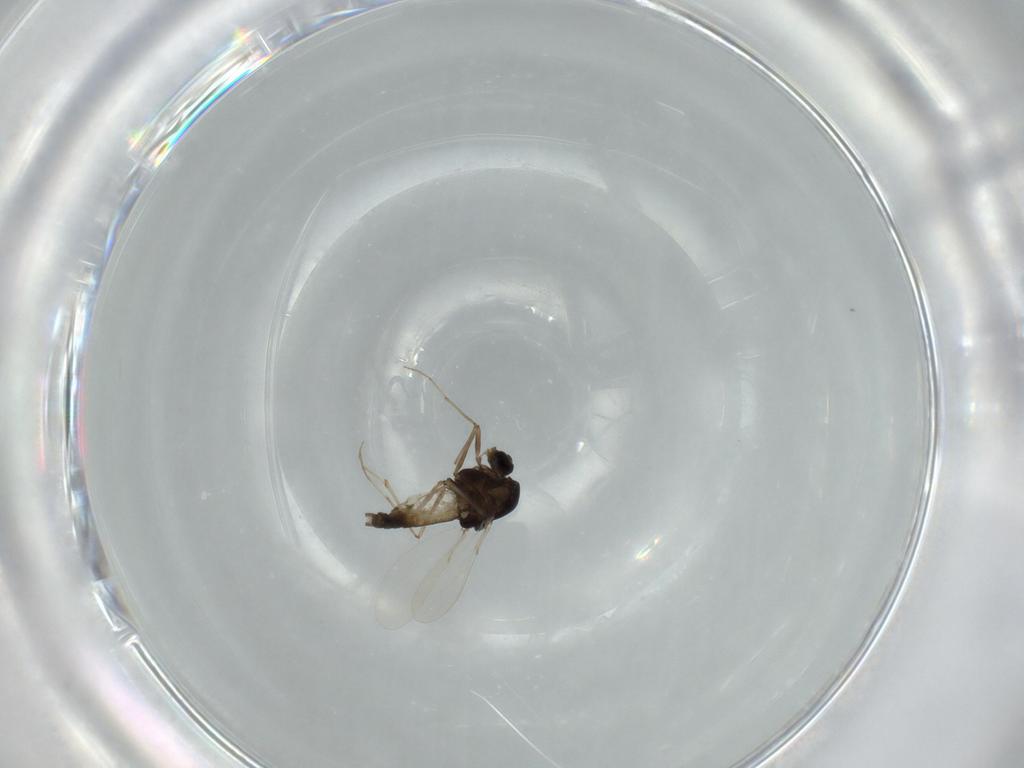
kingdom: Animalia
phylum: Arthropoda
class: Insecta
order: Diptera
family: Chironomidae
